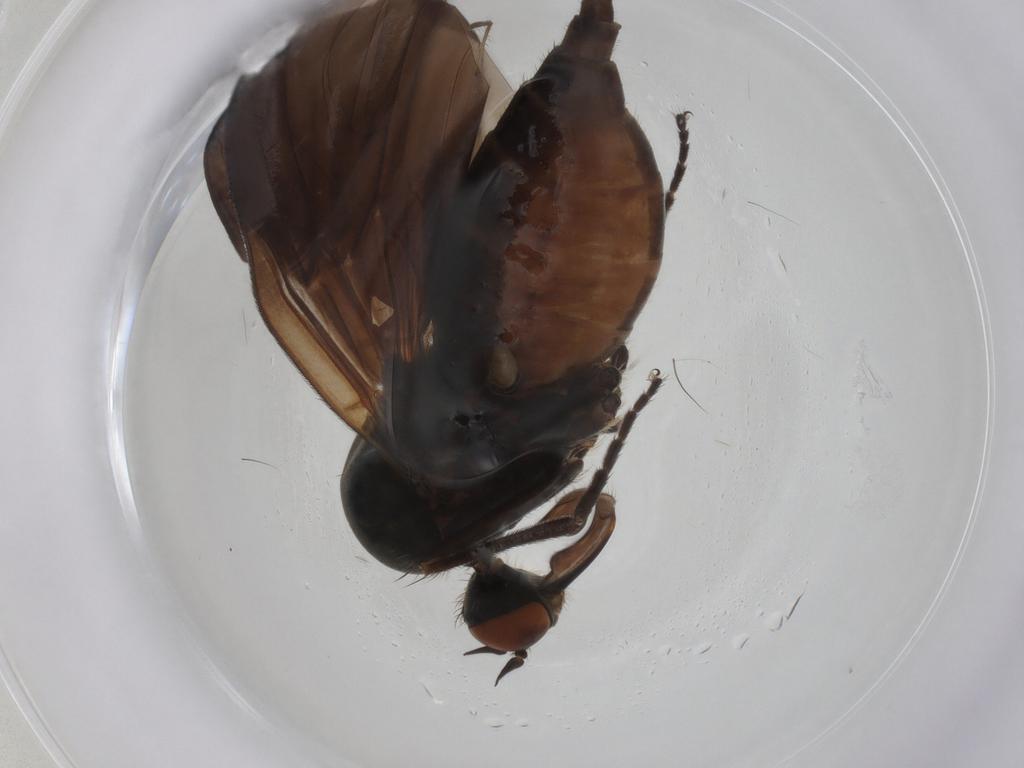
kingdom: Animalia
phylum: Arthropoda
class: Insecta
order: Diptera
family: Empididae
